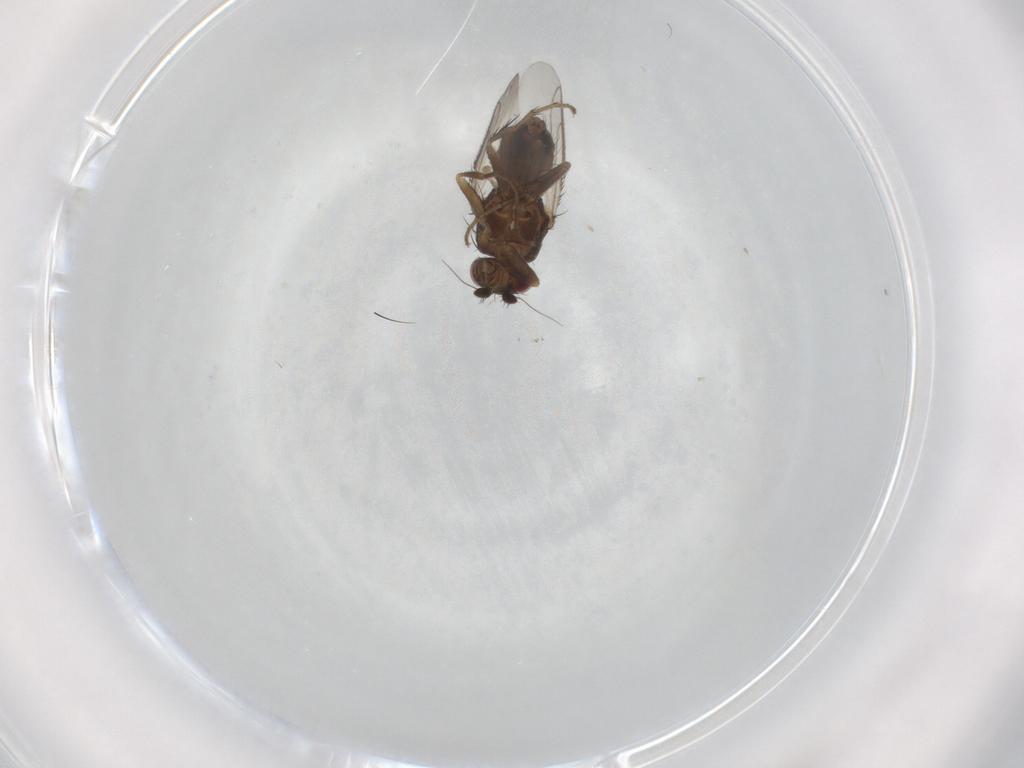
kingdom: Animalia
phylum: Arthropoda
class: Insecta
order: Diptera
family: Sphaeroceridae
